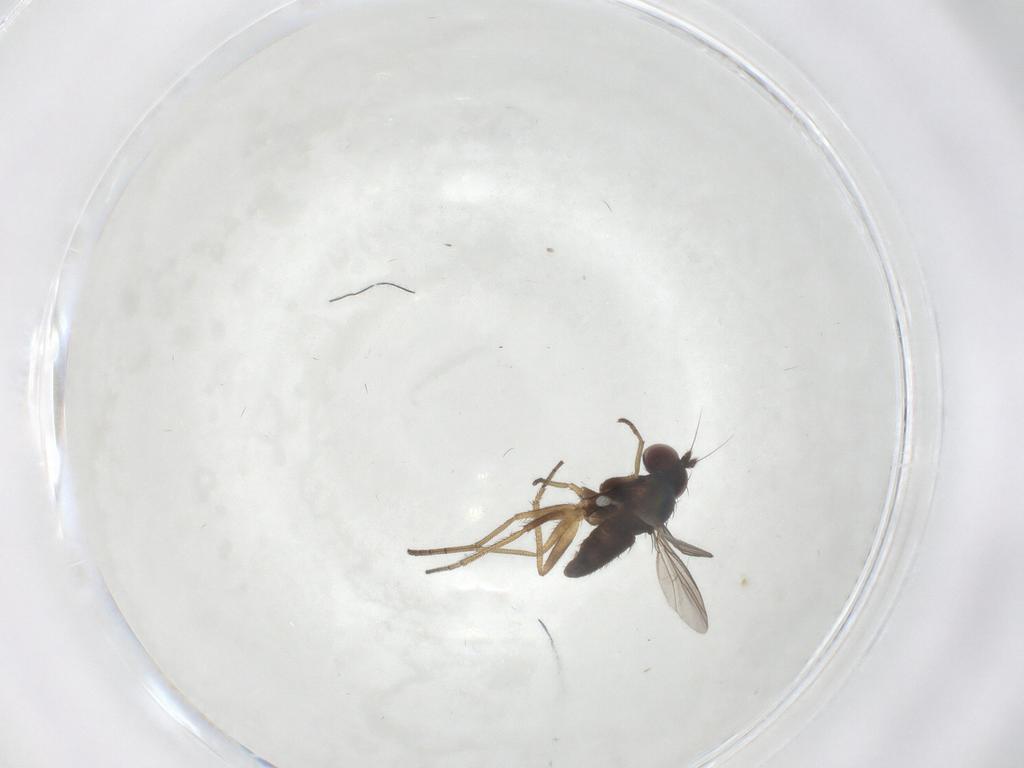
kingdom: Animalia
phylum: Arthropoda
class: Insecta
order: Diptera
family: Dolichopodidae
